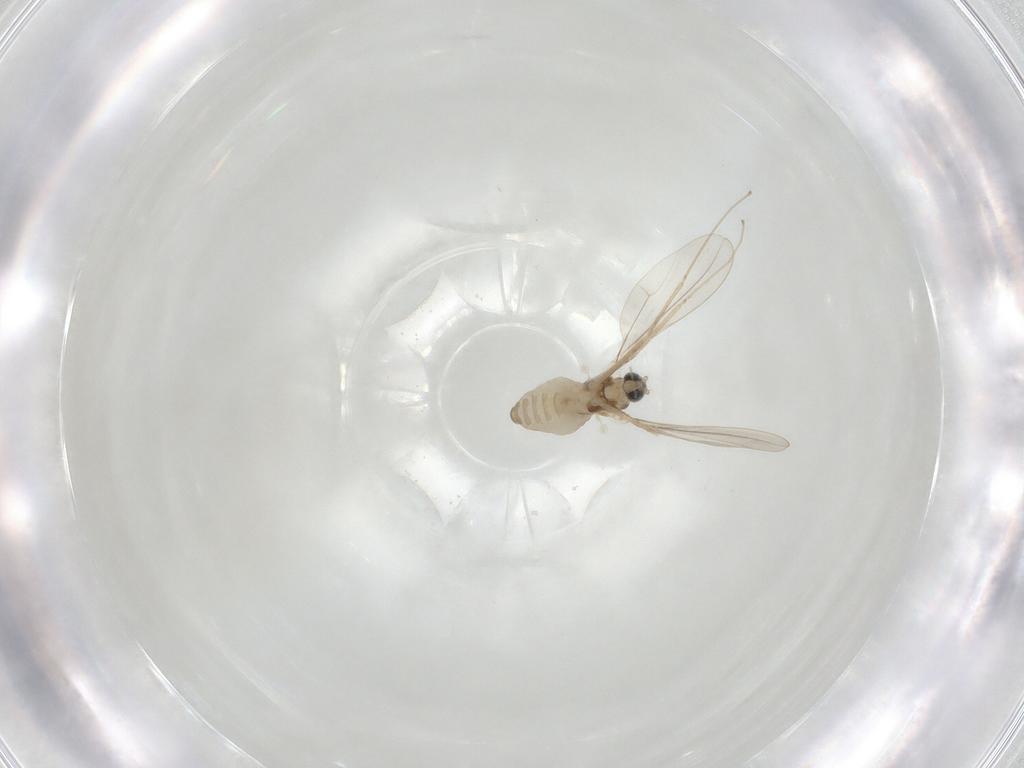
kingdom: Animalia
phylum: Arthropoda
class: Insecta
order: Diptera
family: Cecidomyiidae
